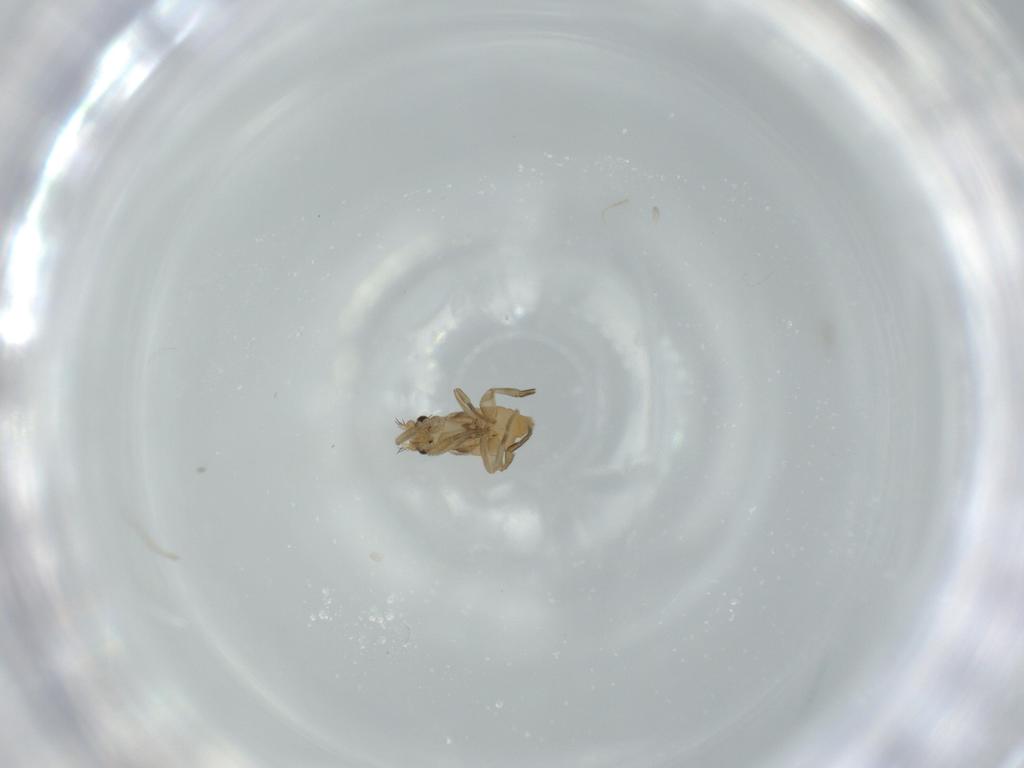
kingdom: Animalia
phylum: Arthropoda
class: Insecta
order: Diptera
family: Phoridae
